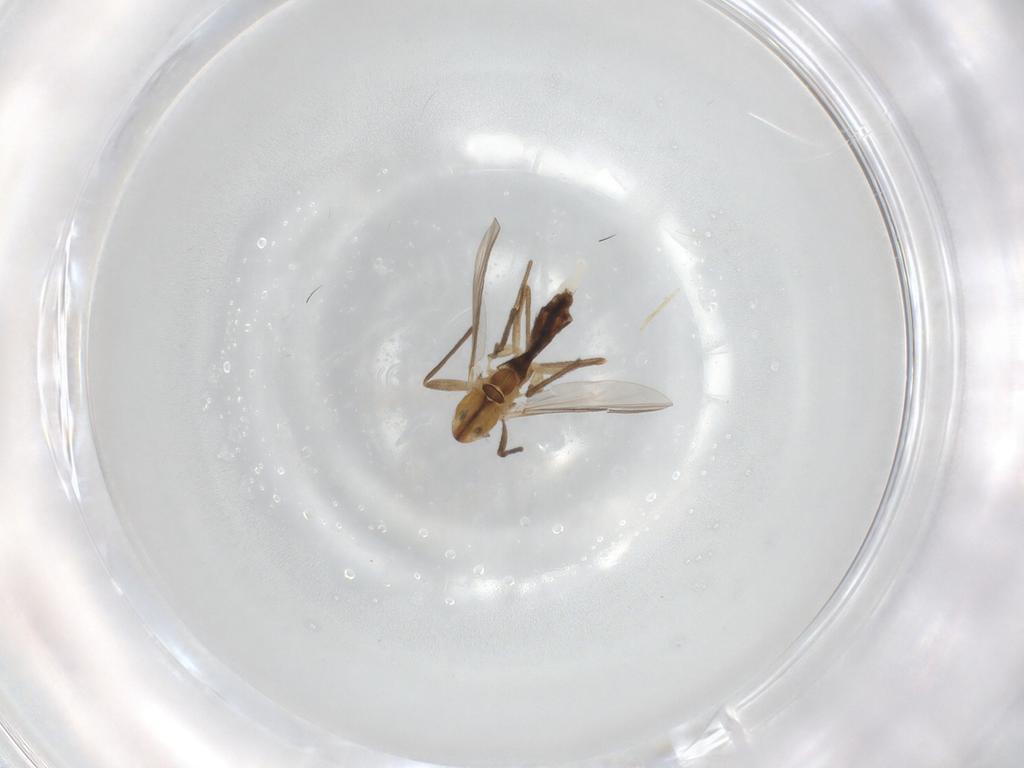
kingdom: Animalia
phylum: Arthropoda
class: Insecta
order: Diptera
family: Chironomidae
